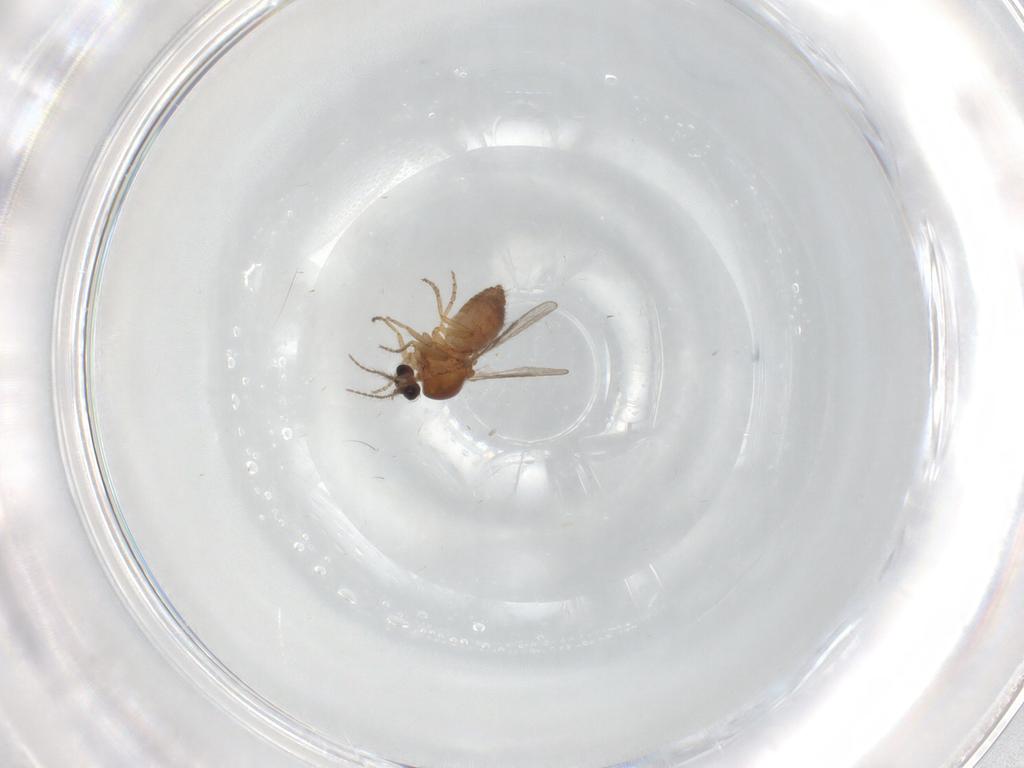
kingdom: Animalia
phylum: Arthropoda
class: Insecta
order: Diptera
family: Ceratopogonidae
